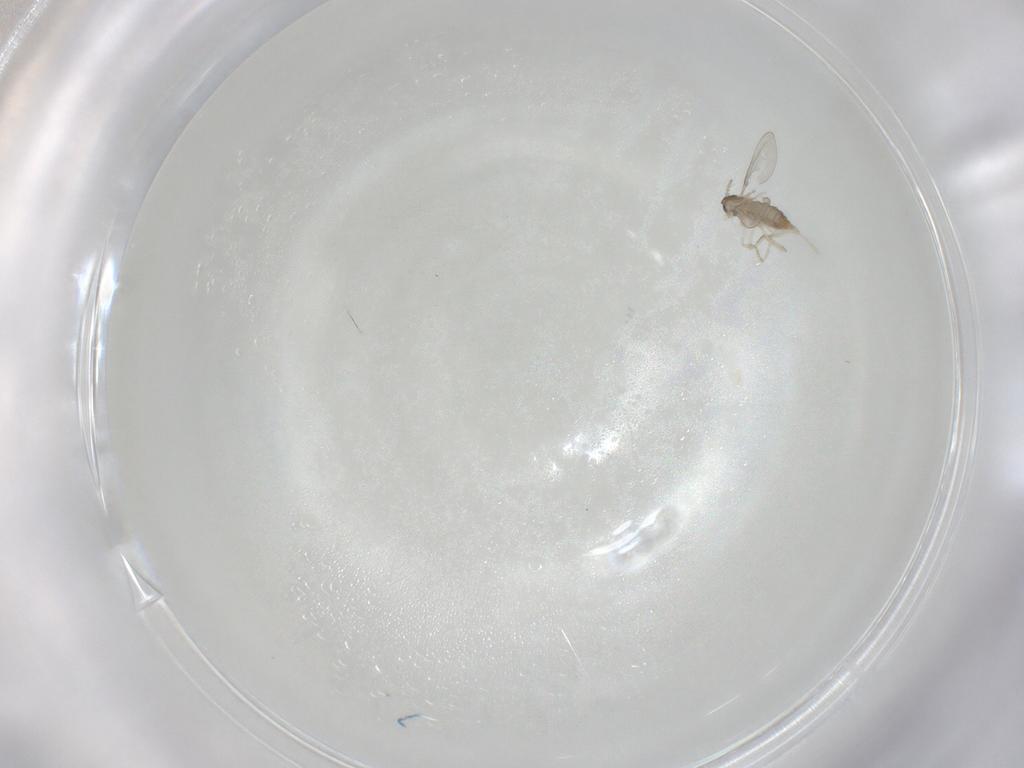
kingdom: Animalia
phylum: Arthropoda
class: Insecta
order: Diptera
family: Cecidomyiidae
